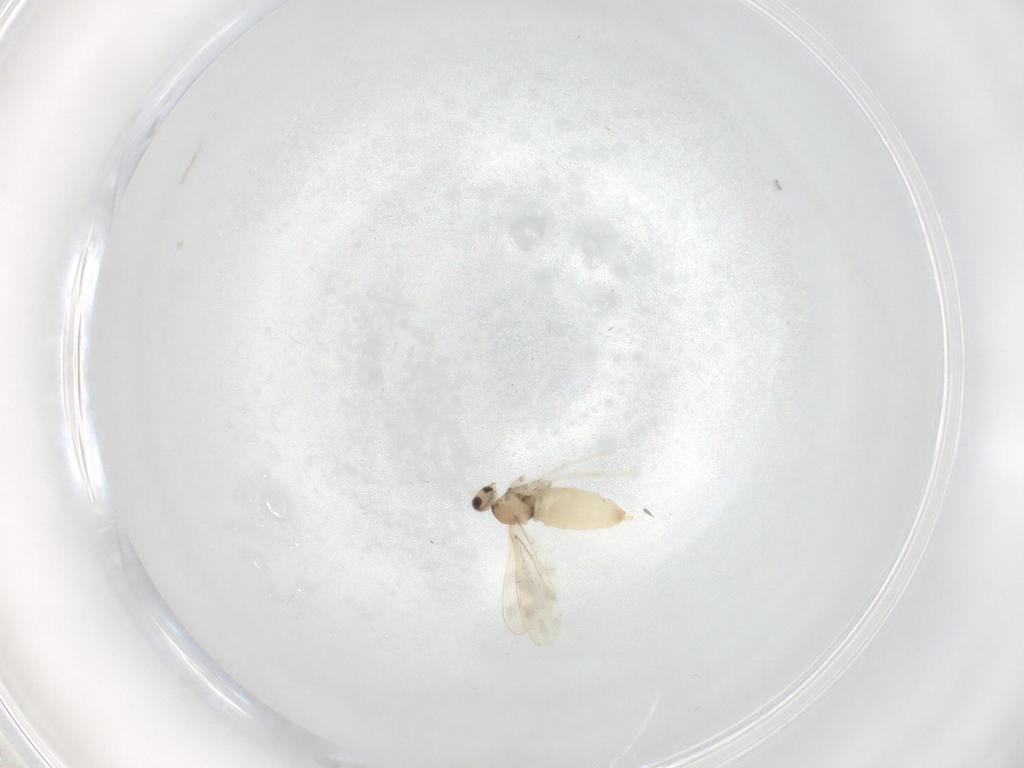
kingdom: Animalia
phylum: Arthropoda
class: Insecta
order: Diptera
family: Cecidomyiidae
